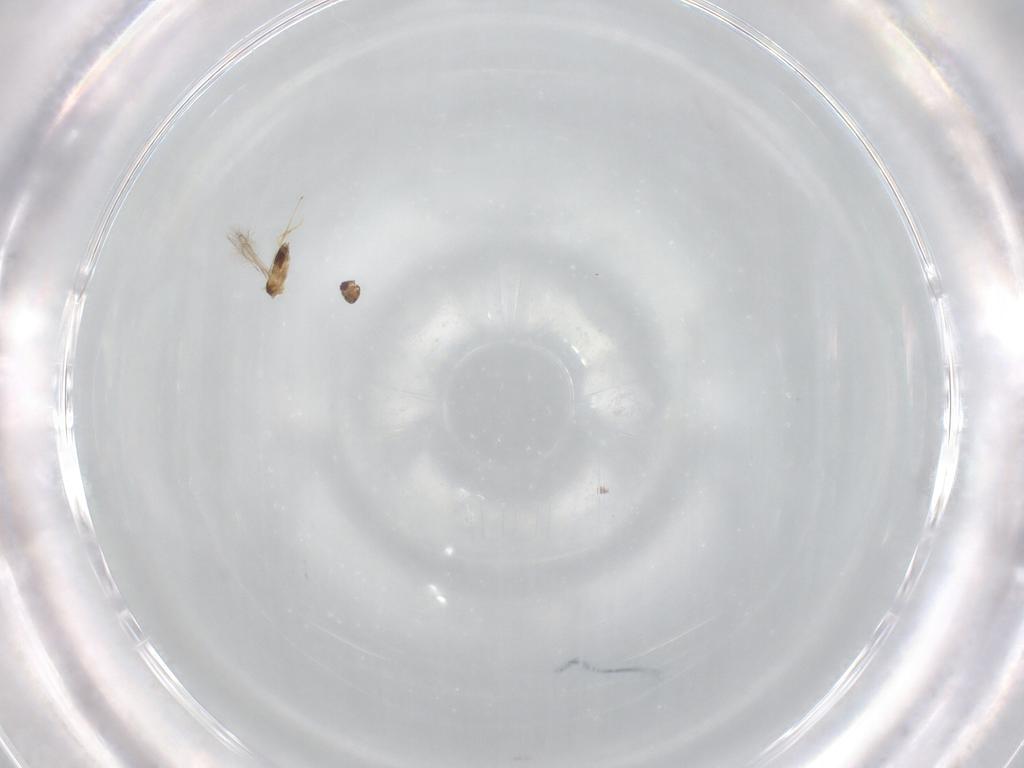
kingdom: Animalia
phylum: Arthropoda
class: Insecta
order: Hymenoptera
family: Mymaridae
